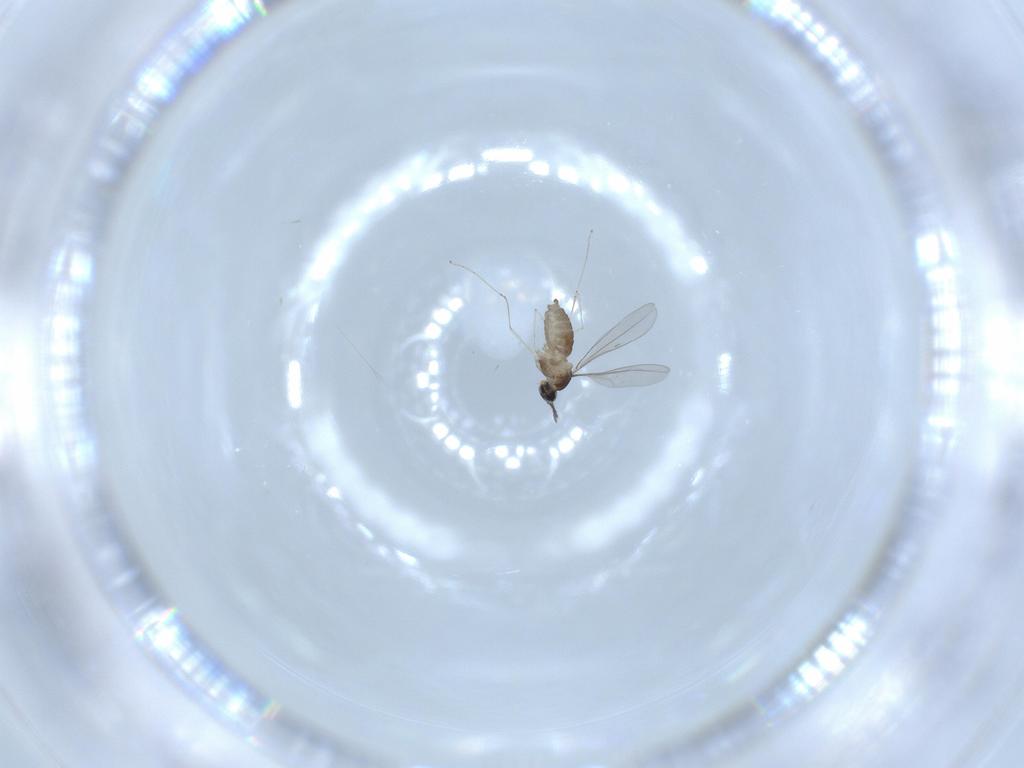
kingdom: Animalia
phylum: Arthropoda
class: Insecta
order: Diptera
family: Cecidomyiidae
